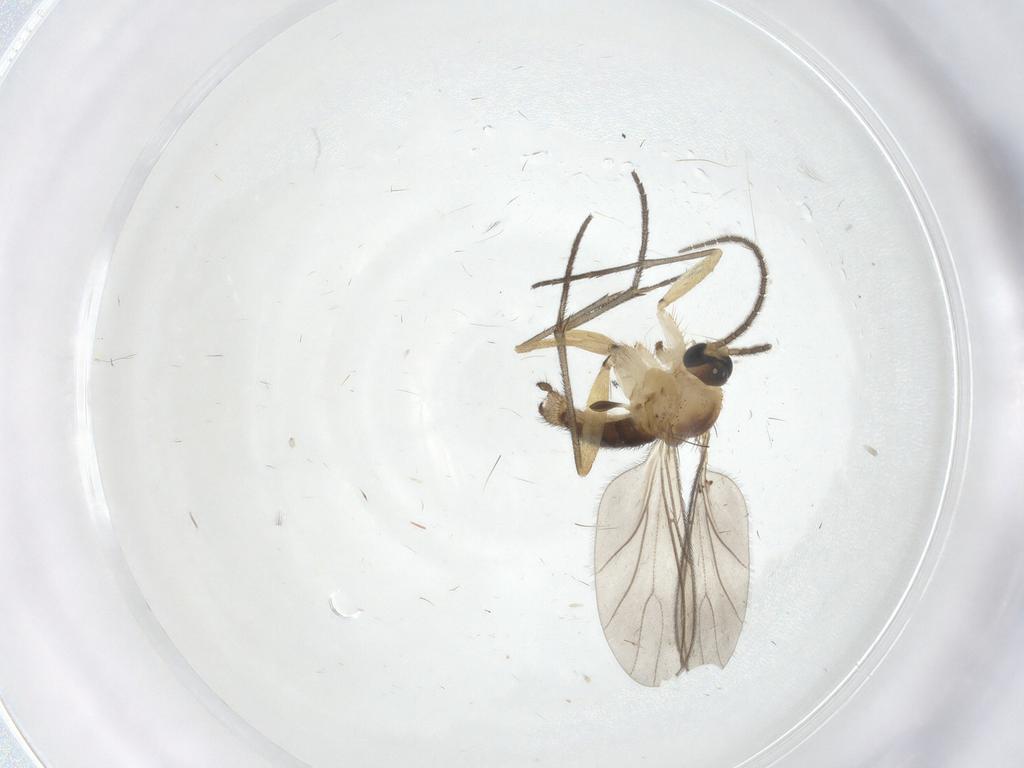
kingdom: Animalia
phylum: Arthropoda
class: Insecta
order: Diptera
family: Sciaridae
